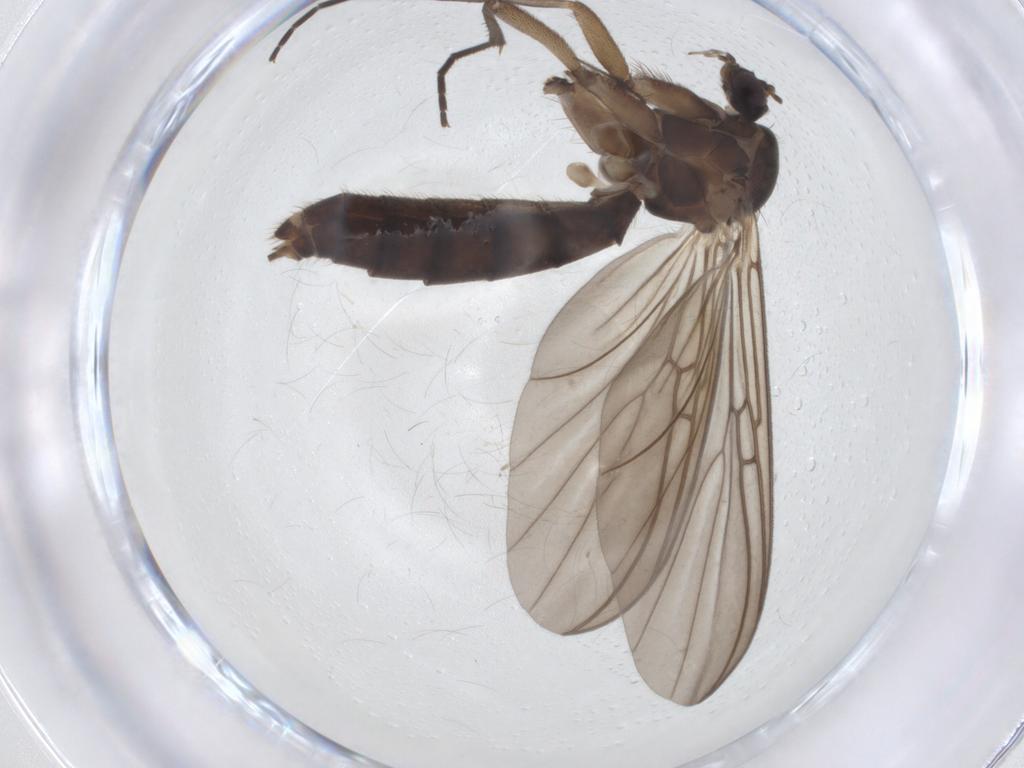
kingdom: Animalia
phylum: Arthropoda
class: Insecta
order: Diptera
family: Mycetophilidae
